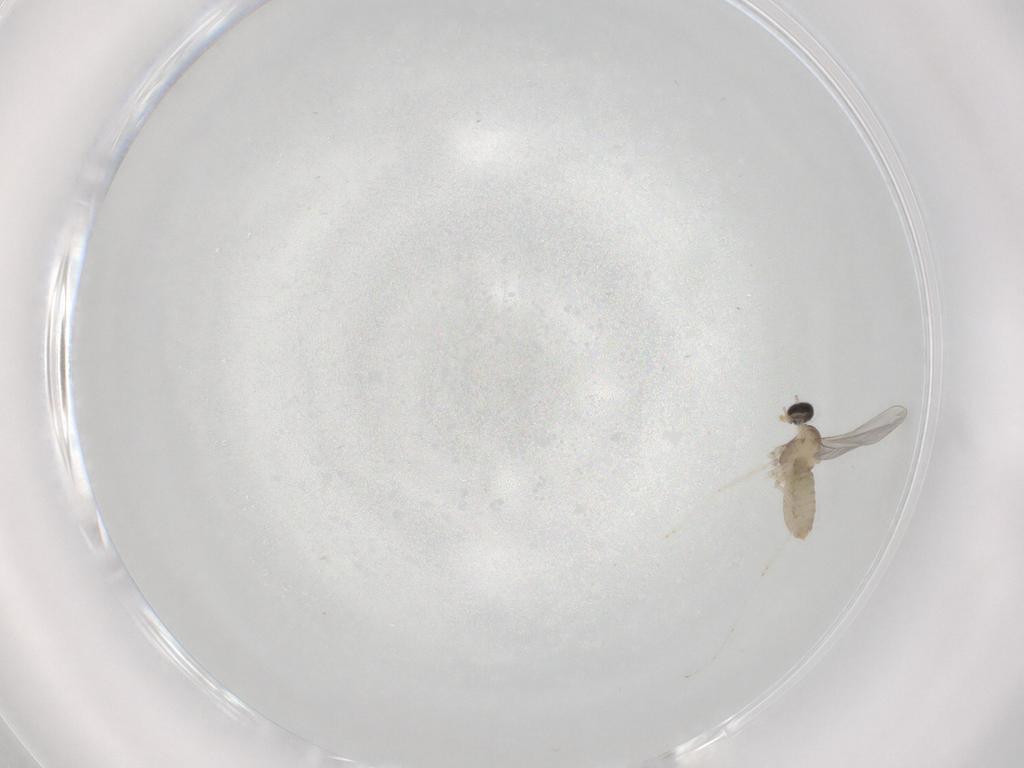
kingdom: Animalia
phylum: Arthropoda
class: Insecta
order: Diptera
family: Cecidomyiidae
